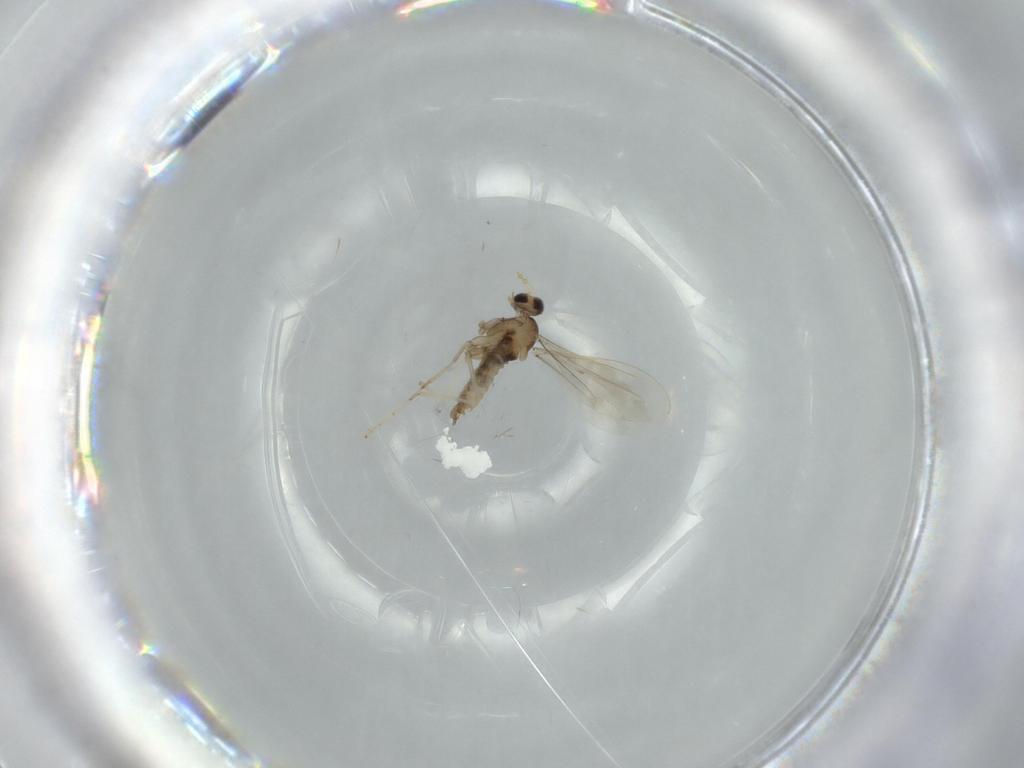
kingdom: Animalia
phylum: Arthropoda
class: Insecta
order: Diptera
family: Cecidomyiidae
